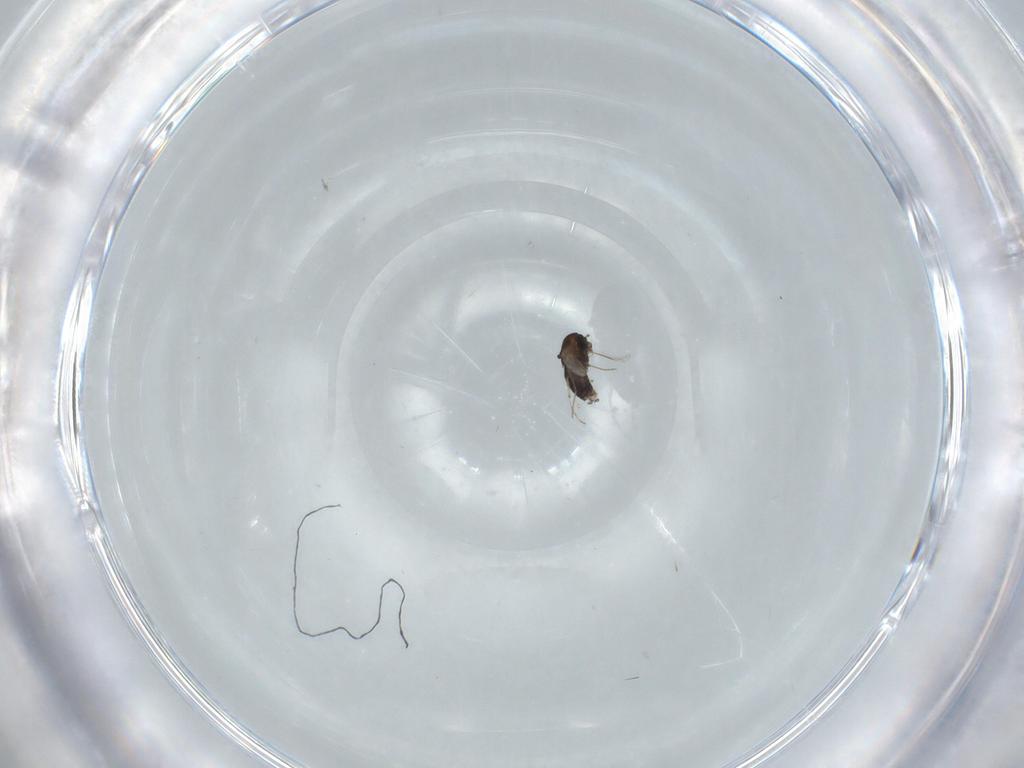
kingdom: Animalia
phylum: Arthropoda
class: Insecta
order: Diptera
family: Chironomidae
